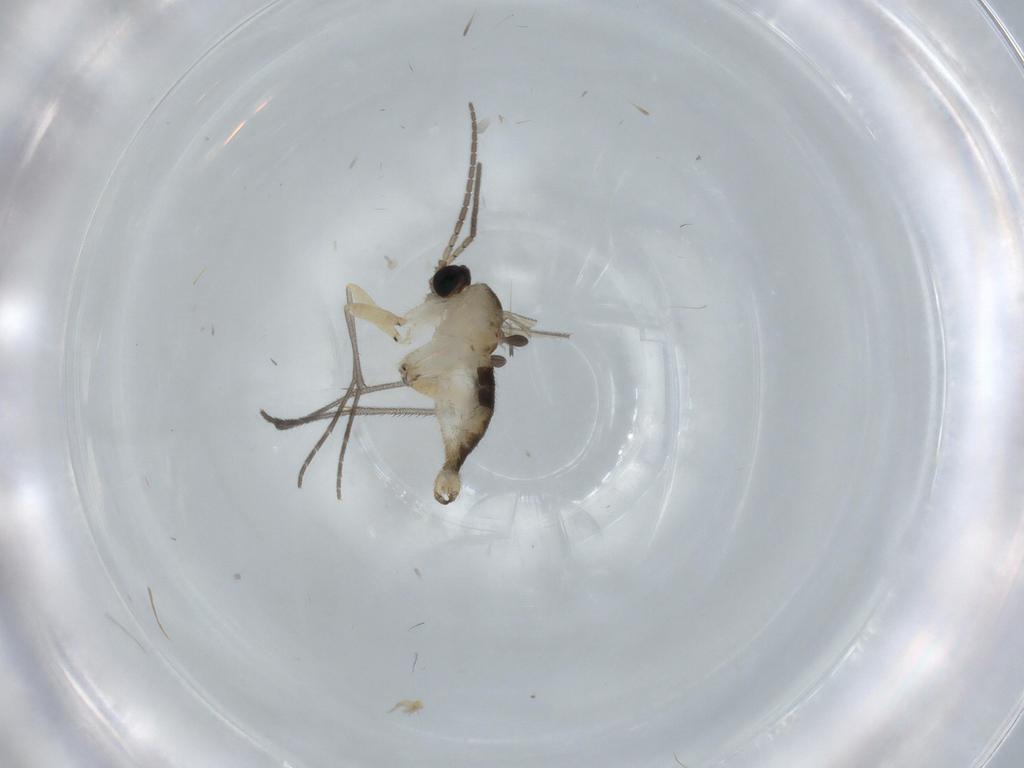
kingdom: Animalia
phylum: Arthropoda
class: Insecta
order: Diptera
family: Sciaridae
